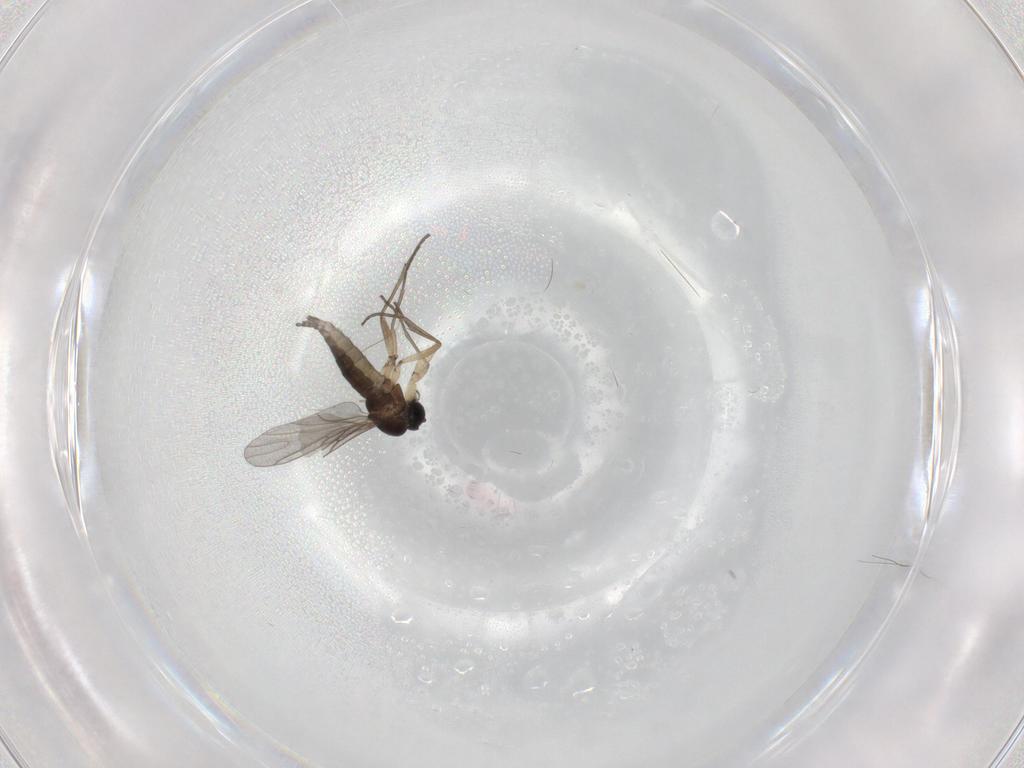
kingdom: Animalia
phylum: Arthropoda
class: Insecta
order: Diptera
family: Sciaridae
